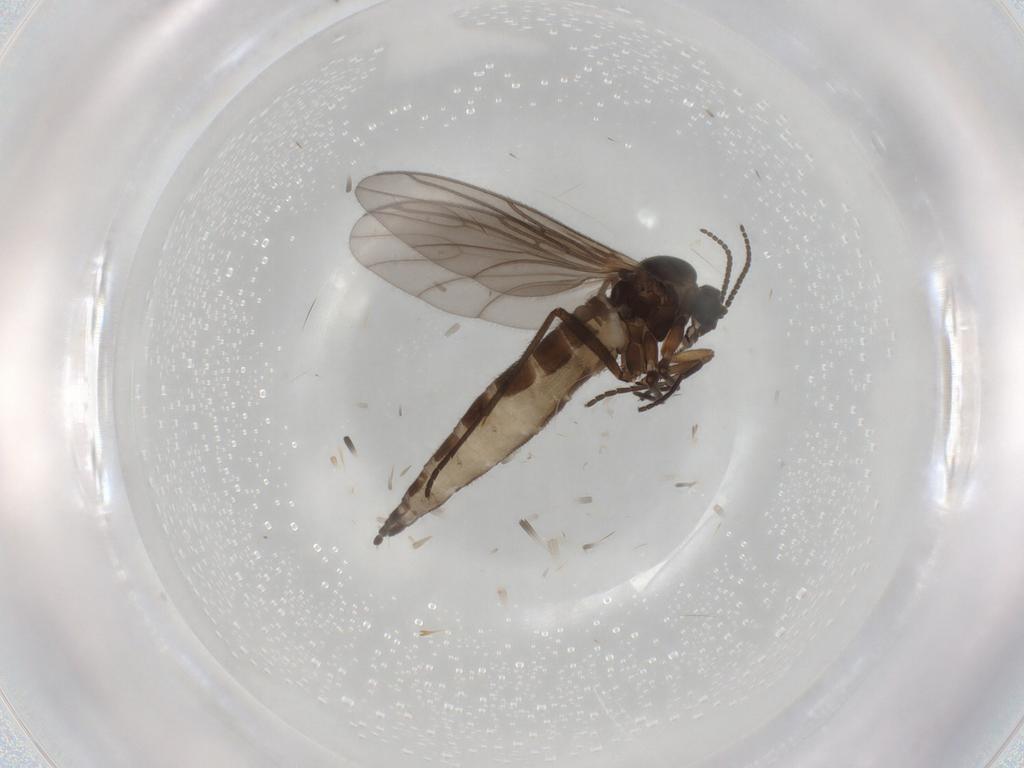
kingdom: Animalia
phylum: Arthropoda
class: Insecta
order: Diptera
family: Sciaridae
